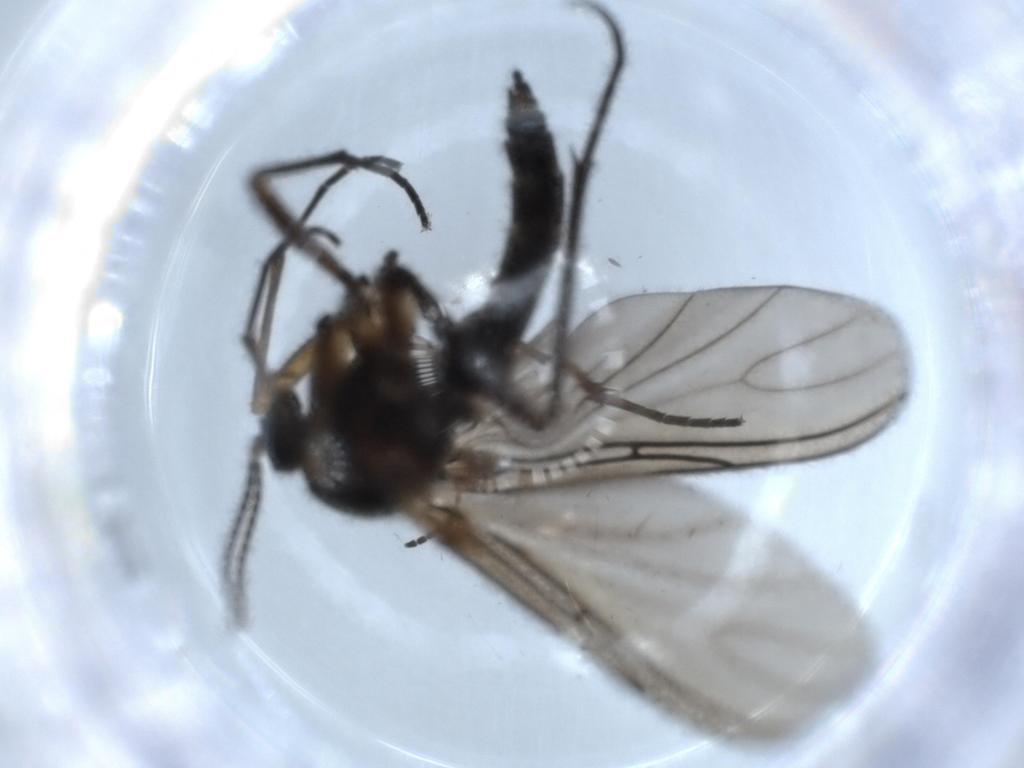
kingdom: Animalia
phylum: Arthropoda
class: Insecta
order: Diptera
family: Sciaridae
